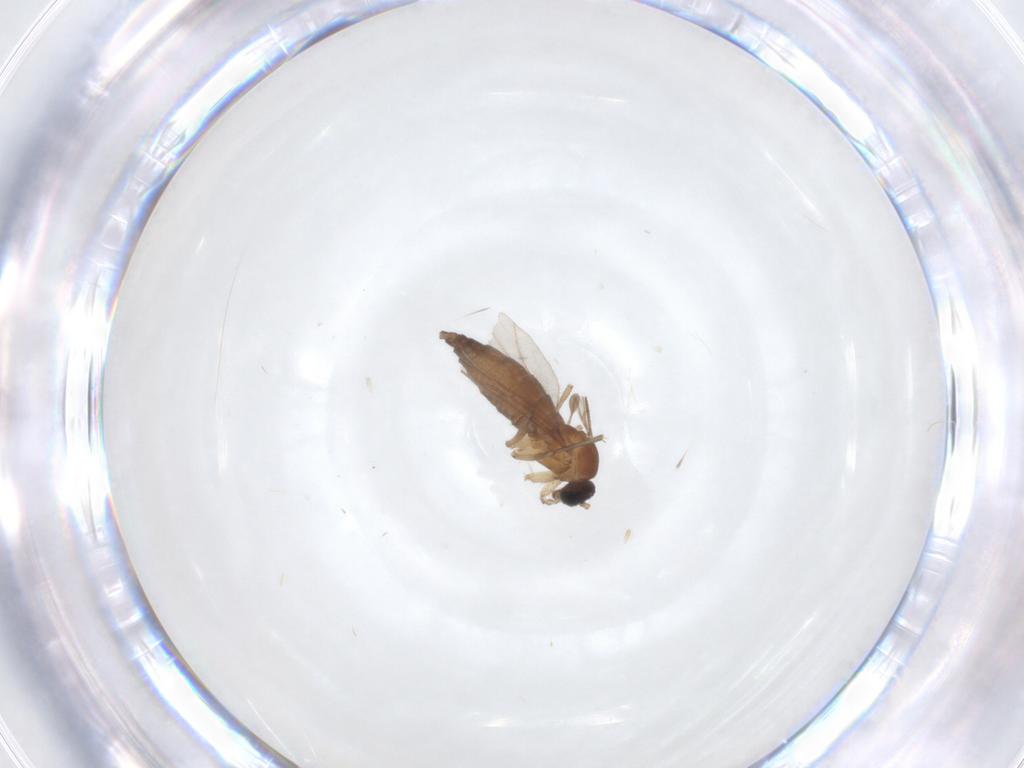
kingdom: Animalia
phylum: Arthropoda
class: Insecta
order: Diptera
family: Sciaridae
